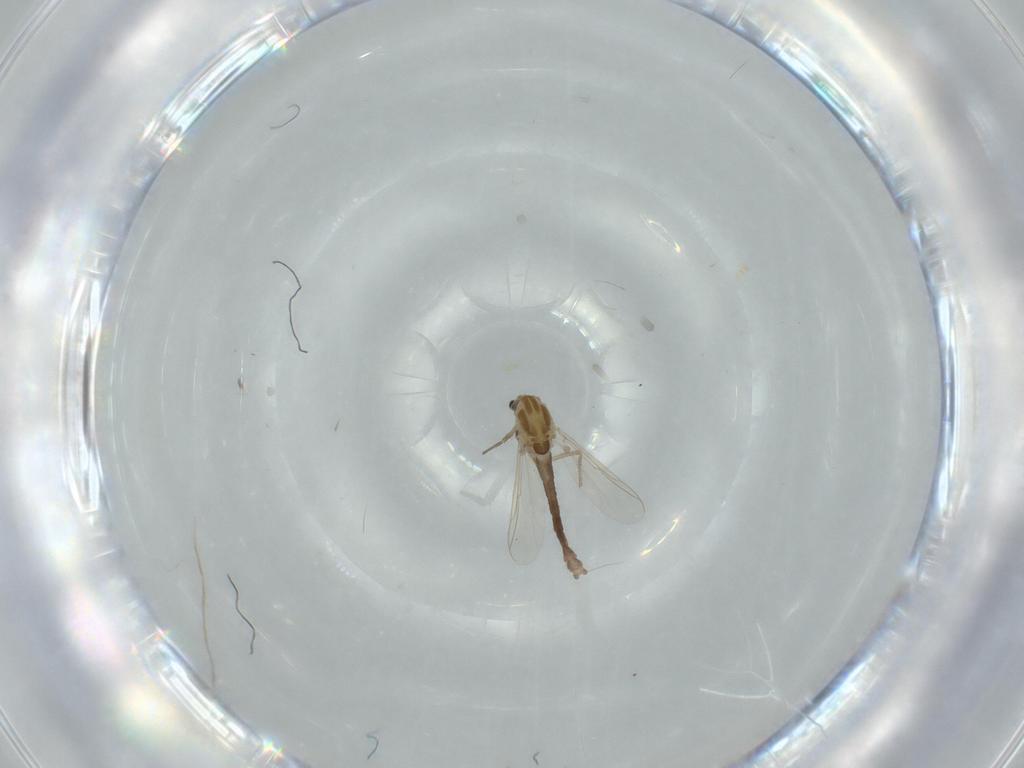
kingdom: Animalia
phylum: Arthropoda
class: Insecta
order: Diptera
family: Chironomidae
